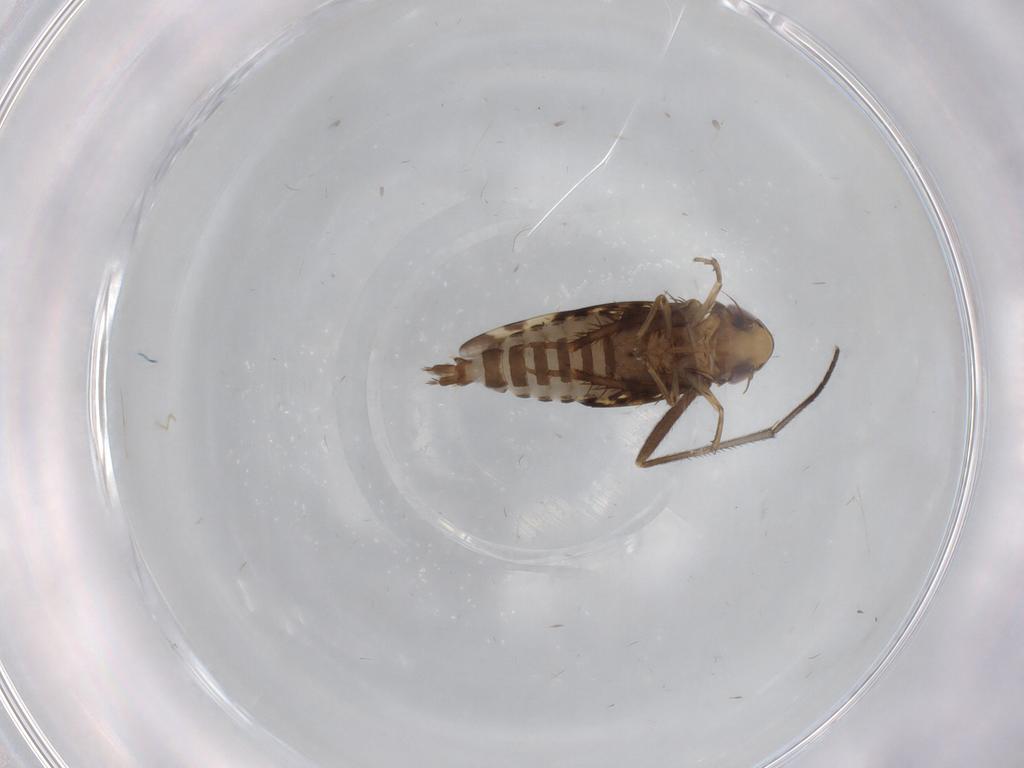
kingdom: Animalia
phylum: Arthropoda
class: Insecta
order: Hemiptera
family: Cicadellidae
